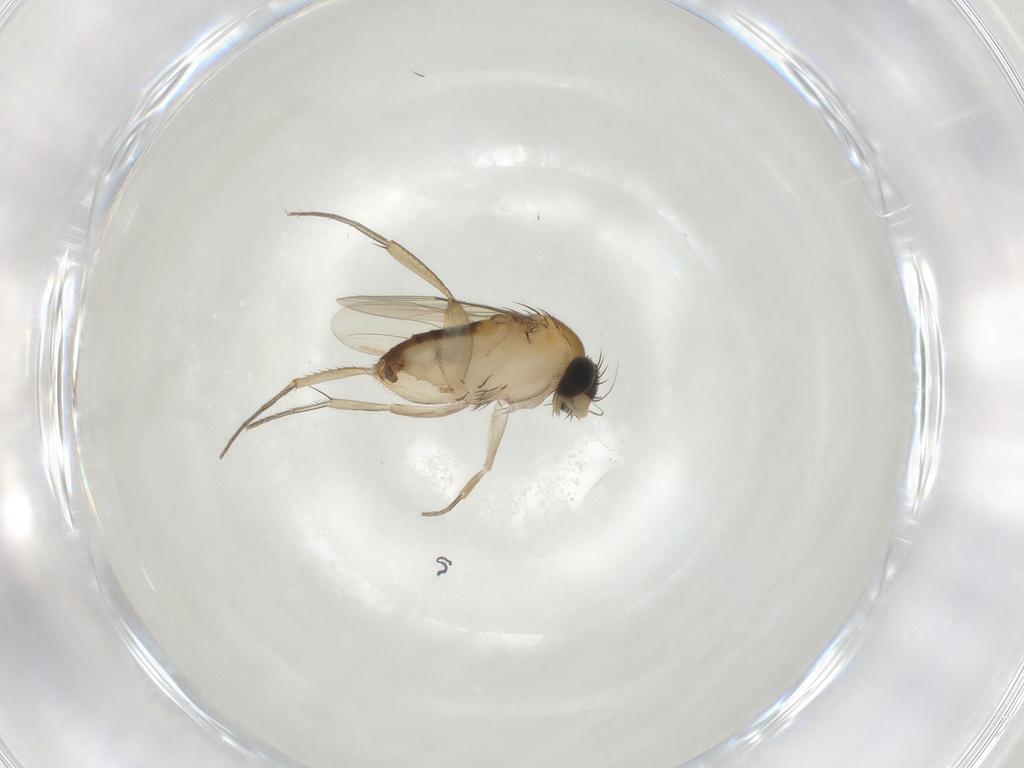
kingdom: Animalia
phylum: Arthropoda
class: Insecta
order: Diptera
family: Phoridae
